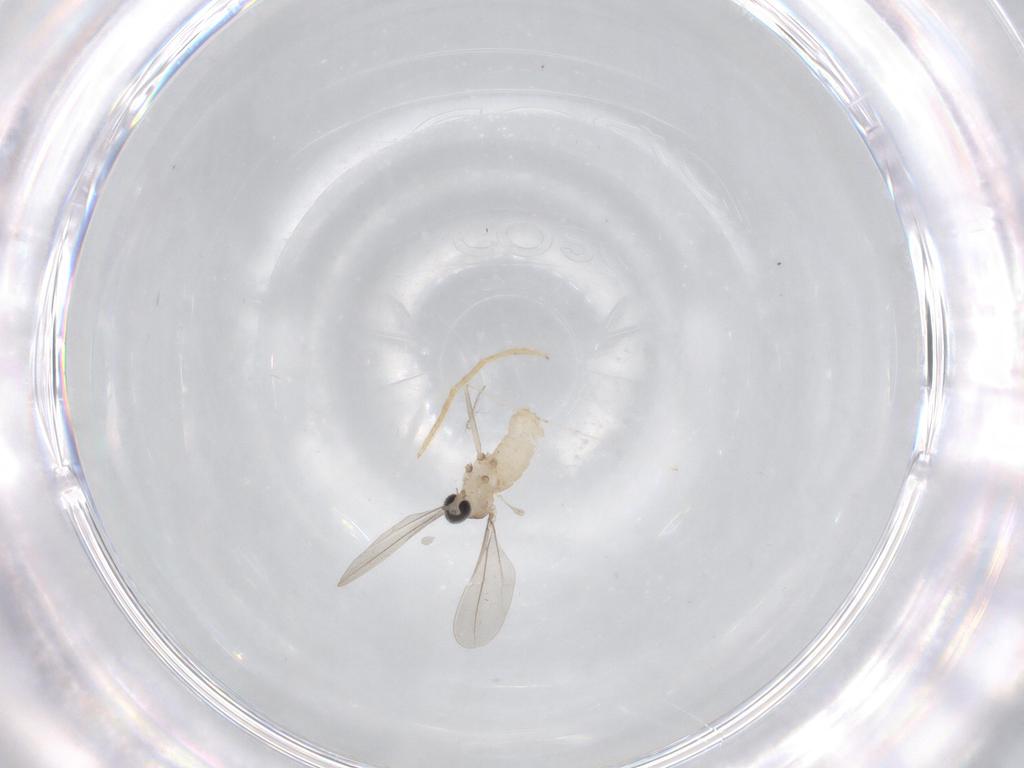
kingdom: Animalia
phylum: Arthropoda
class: Insecta
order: Diptera
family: Cecidomyiidae
